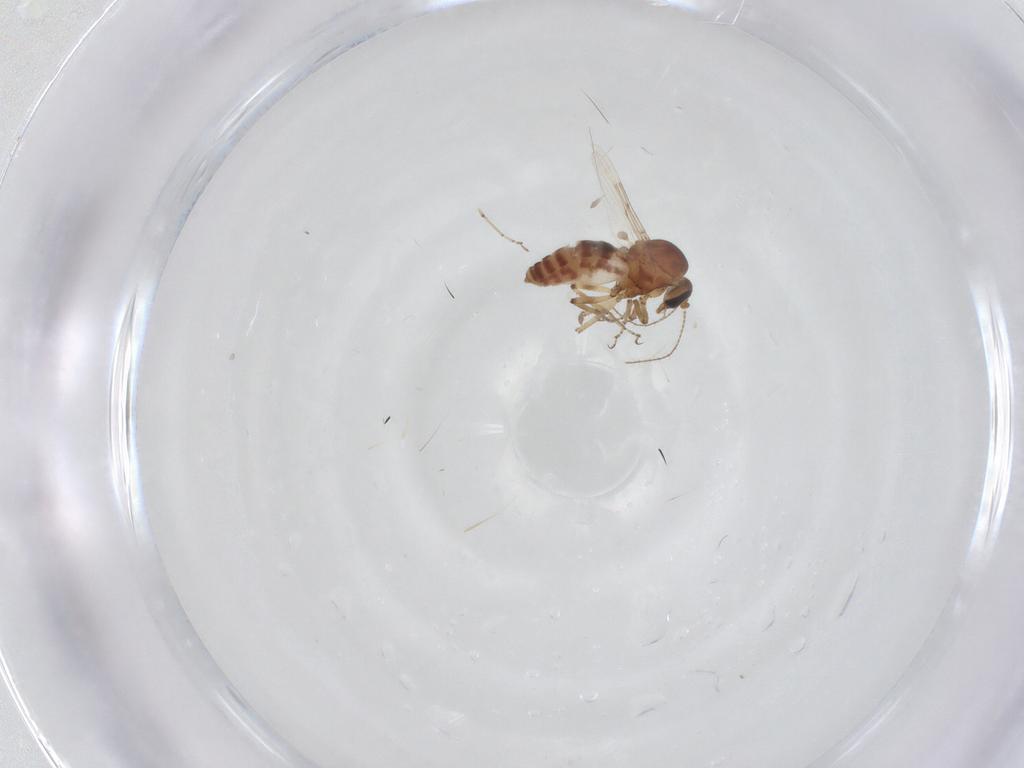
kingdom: Animalia
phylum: Arthropoda
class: Insecta
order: Diptera
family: Ceratopogonidae
